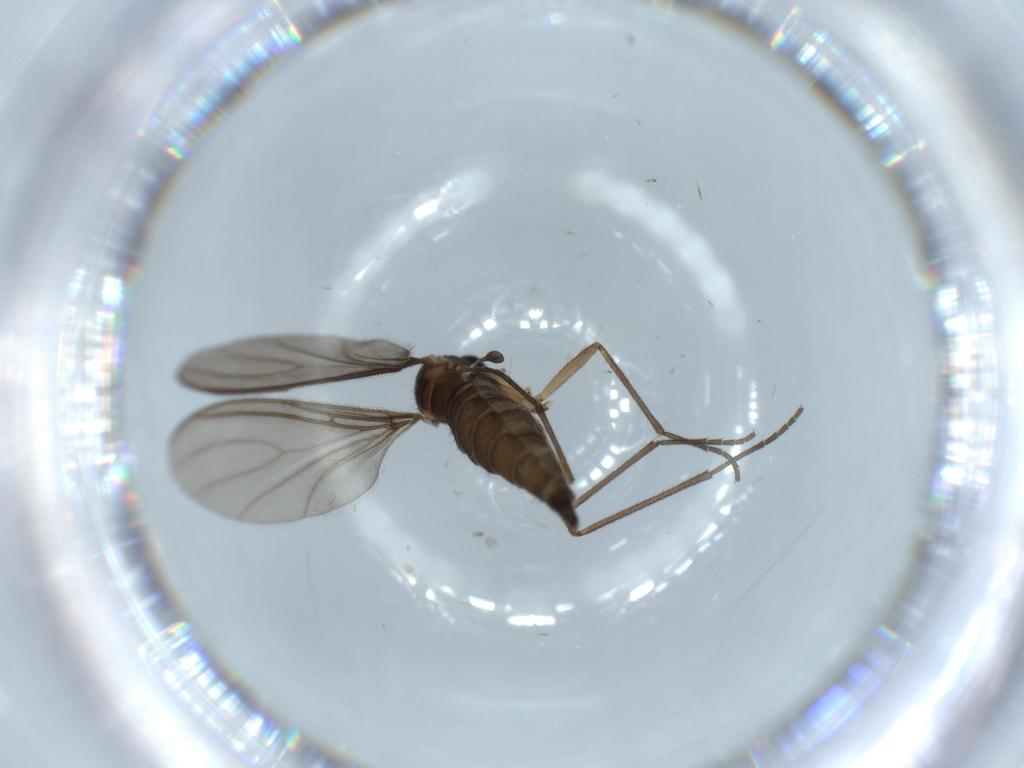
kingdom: Animalia
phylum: Arthropoda
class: Insecta
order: Diptera
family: Sciaridae
